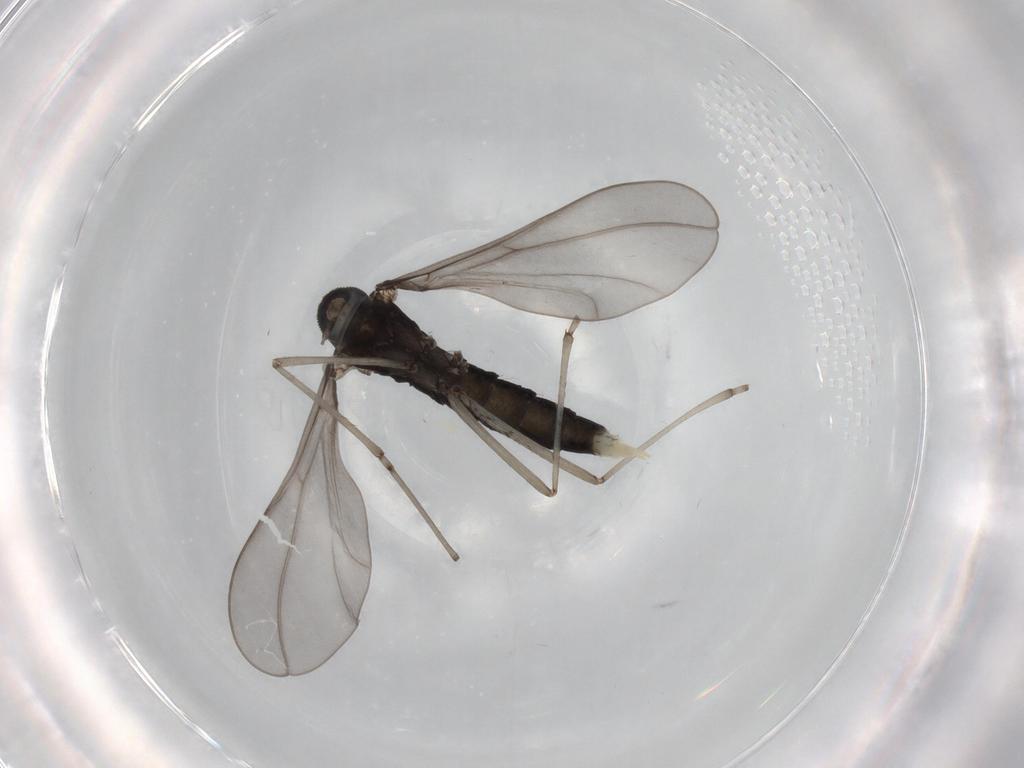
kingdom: Animalia
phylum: Arthropoda
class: Insecta
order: Diptera
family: Cecidomyiidae
